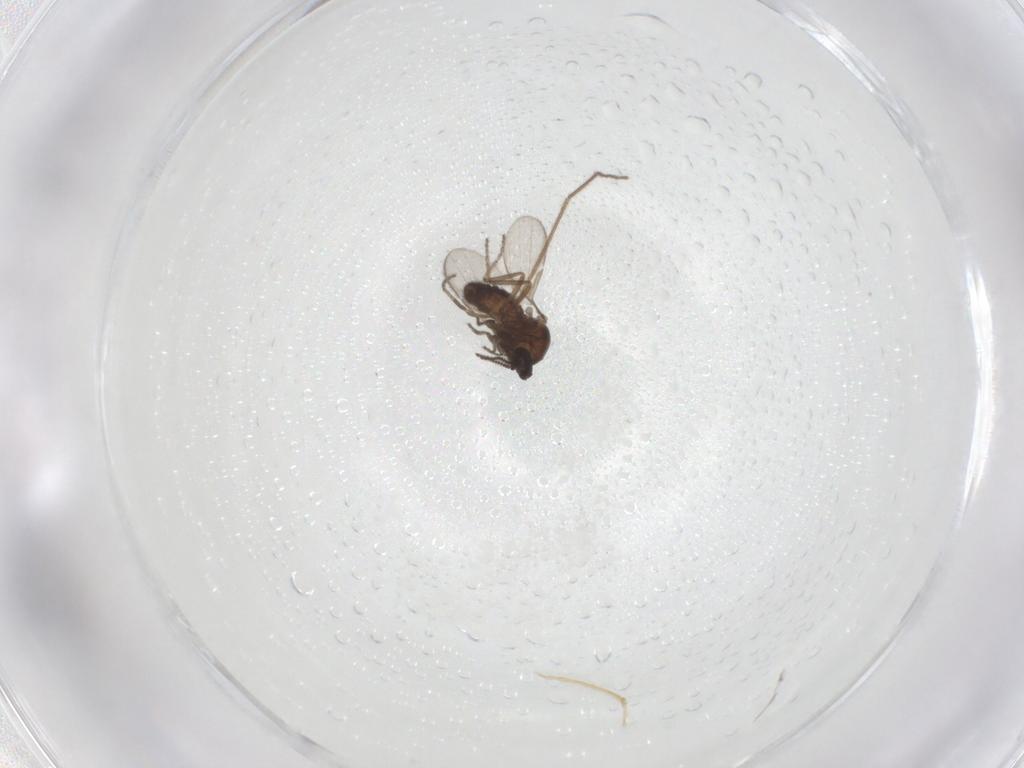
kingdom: Animalia
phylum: Arthropoda
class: Insecta
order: Diptera
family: Ceratopogonidae
